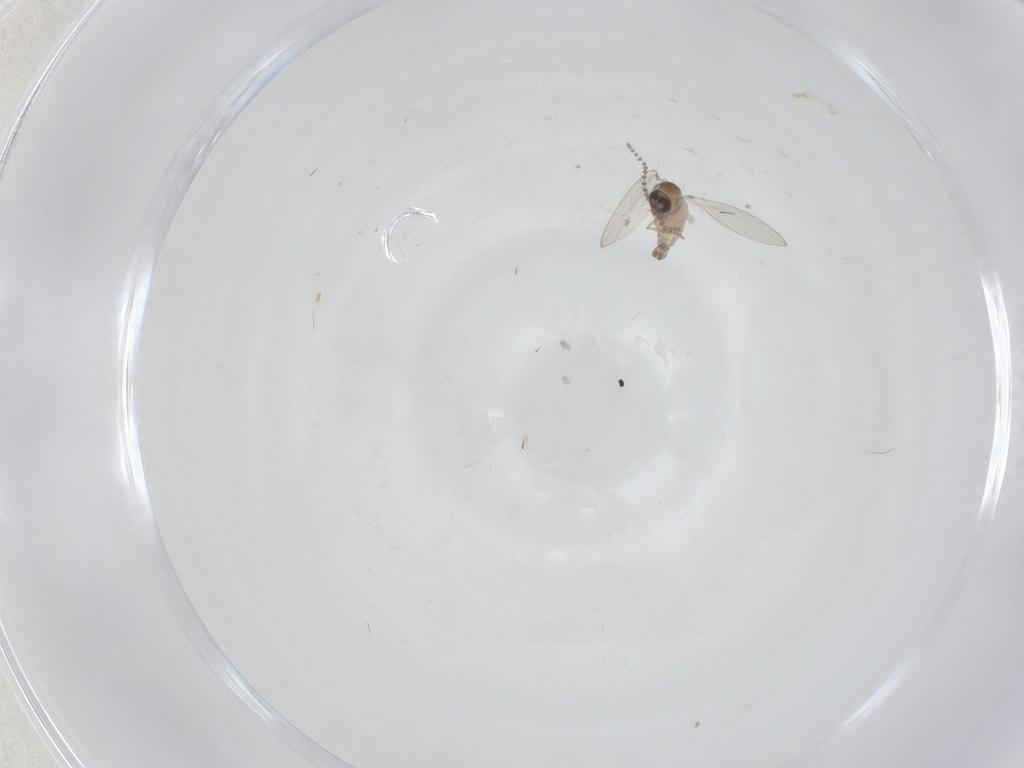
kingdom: Animalia
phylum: Arthropoda
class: Insecta
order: Diptera
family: Psychodidae
